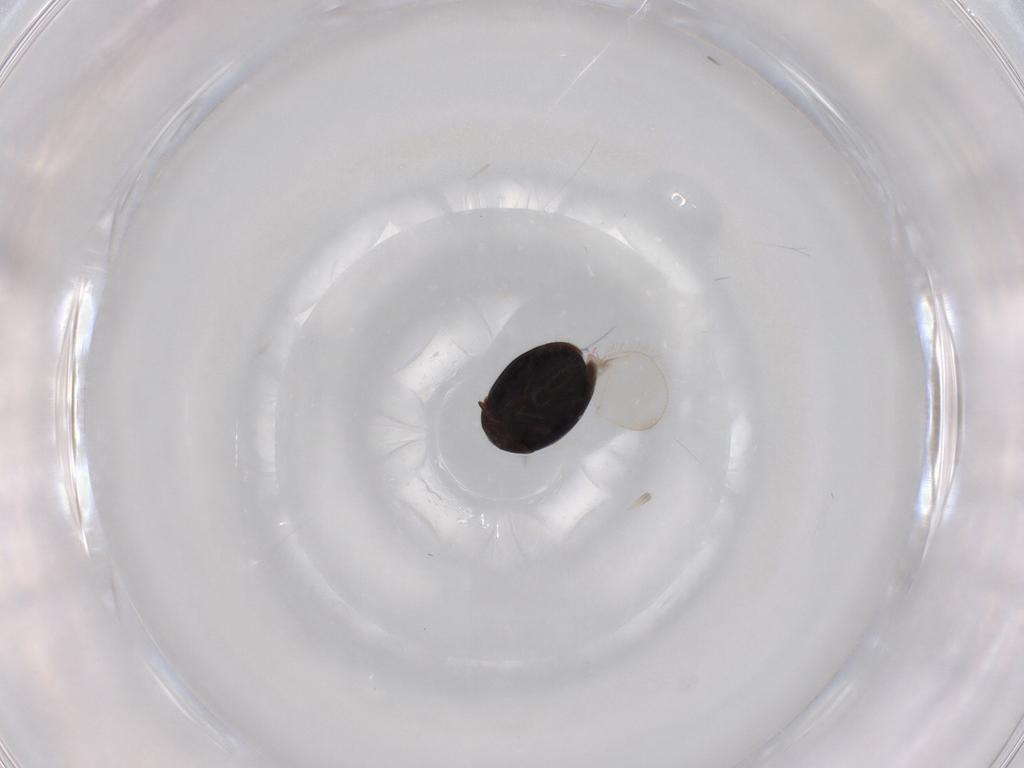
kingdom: Animalia
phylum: Arthropoda
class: Insecta
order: Coleoptera
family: Corylophidae
